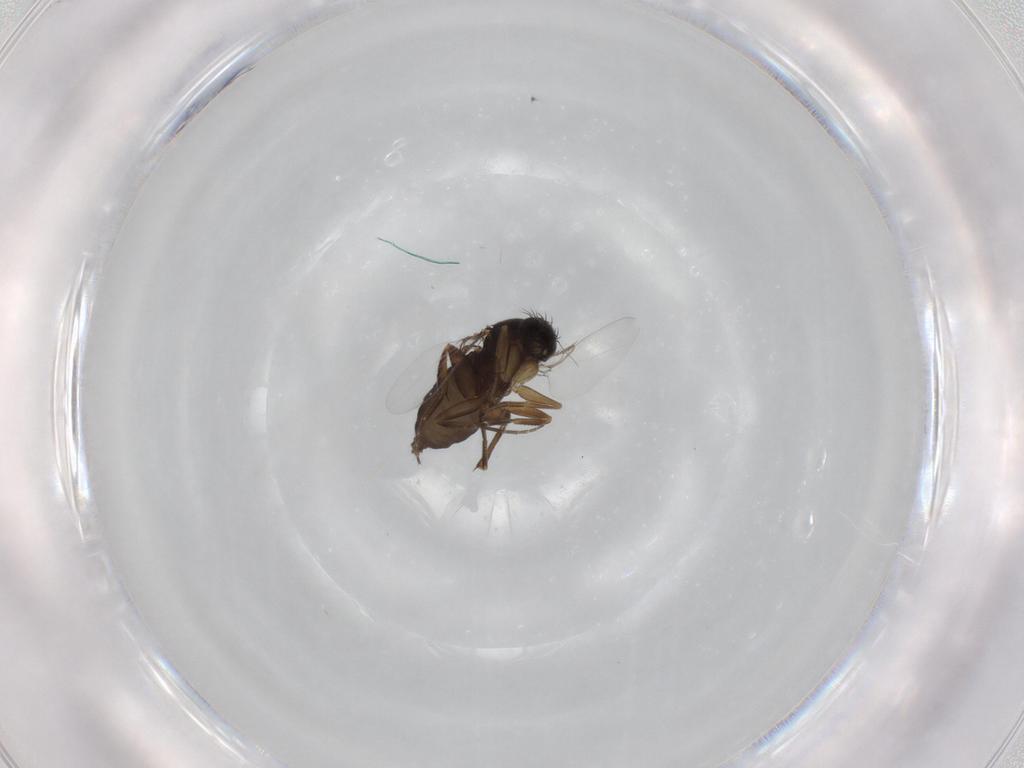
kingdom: Animalia
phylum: Arthropoda
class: Insecta
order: Diptera
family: Phoridae
